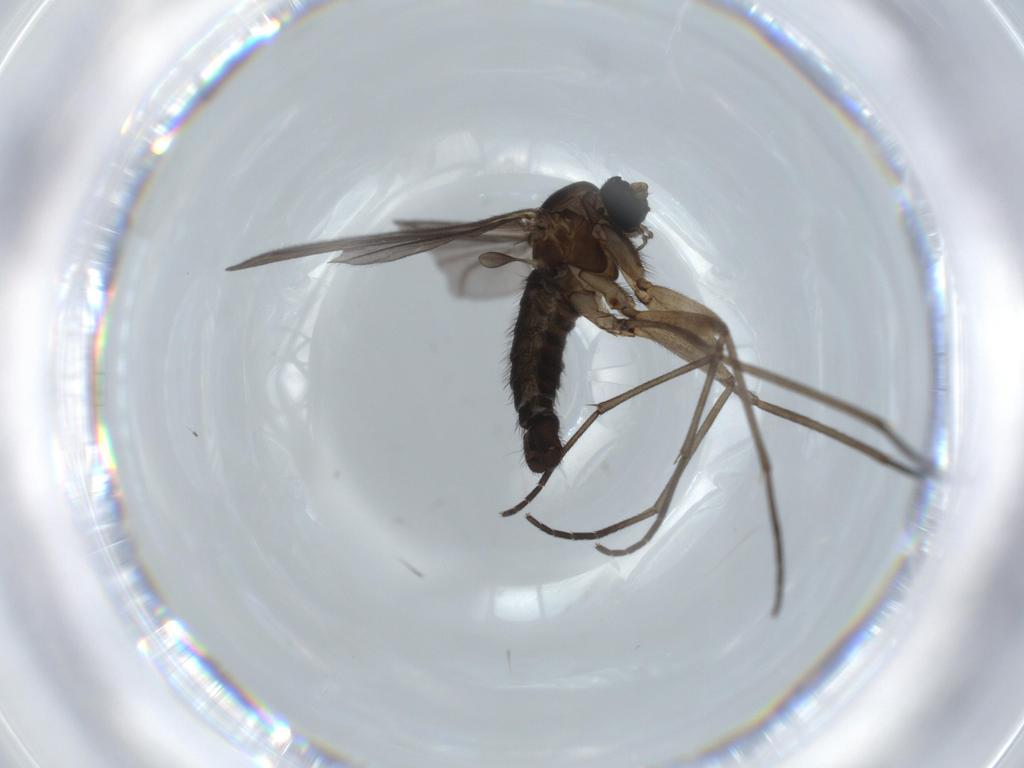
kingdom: Animalia
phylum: Arthropoda
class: Insecta
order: Diptera
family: Sciaridae
